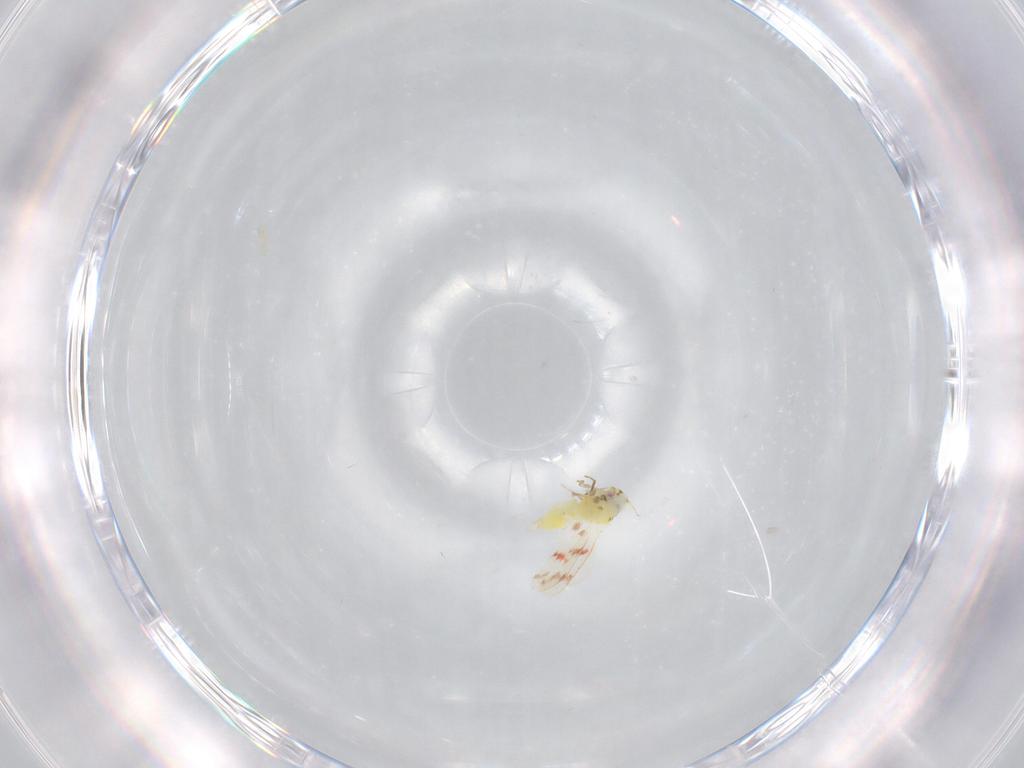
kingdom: Animalia
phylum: Arthropoda
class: Insecta
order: Hemiptera
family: Aleyrodidae
